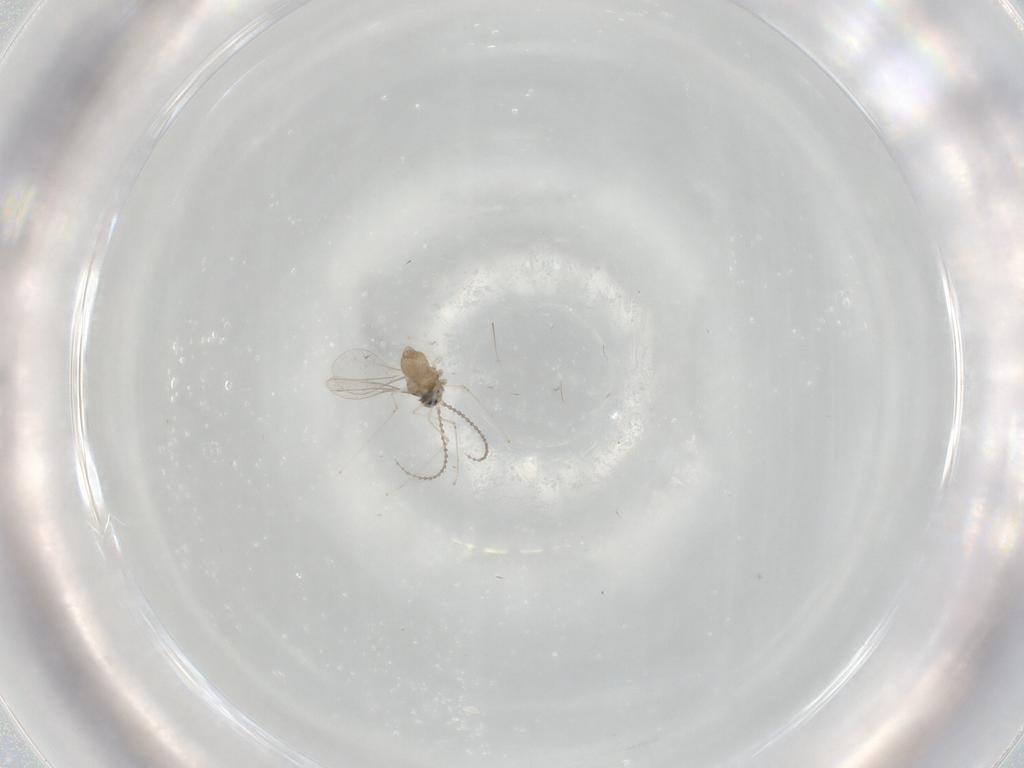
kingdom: Animalia
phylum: Arthropoda
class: Insecta
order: Diptera
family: Cecidomyiidae
